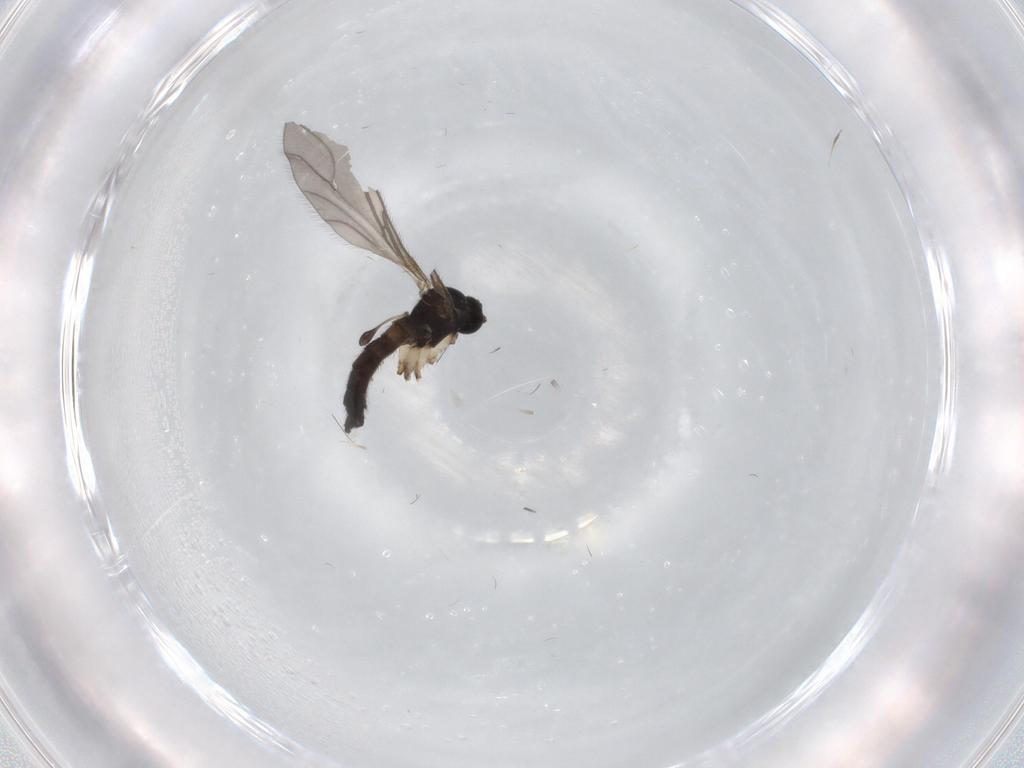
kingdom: Animalia
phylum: Arthropoda
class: Insecta
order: Diptera
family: Sciaridae
